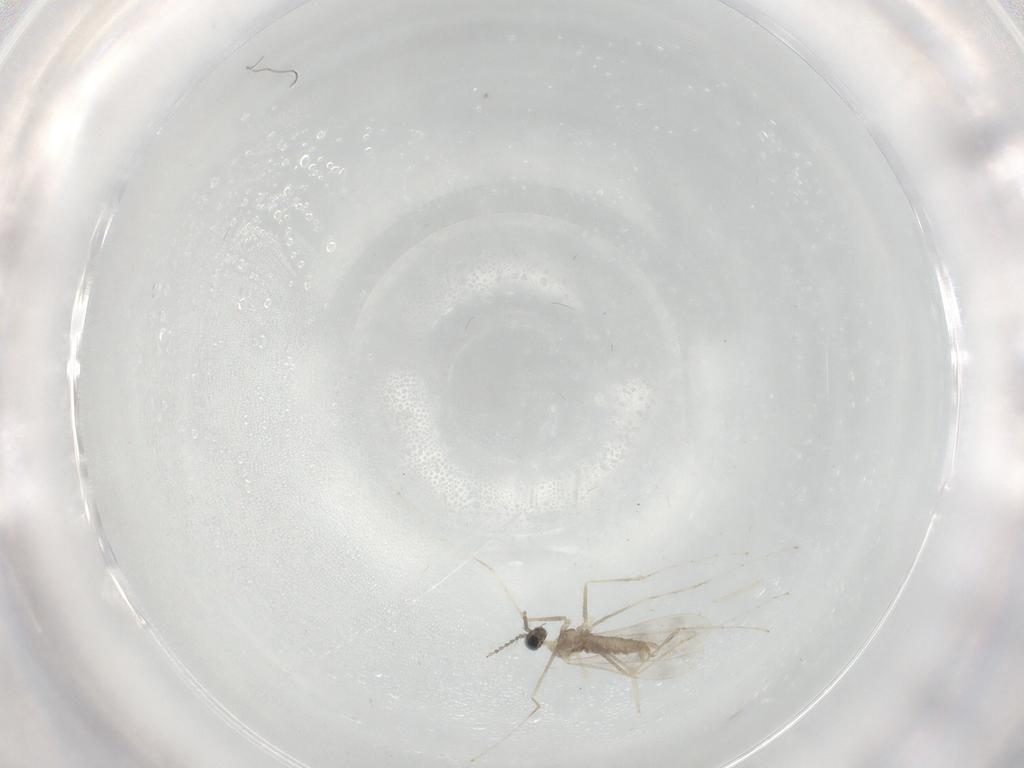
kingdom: Animalia
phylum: Arthropoda
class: Insecta
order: Diptera
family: Cecidomyiidae
